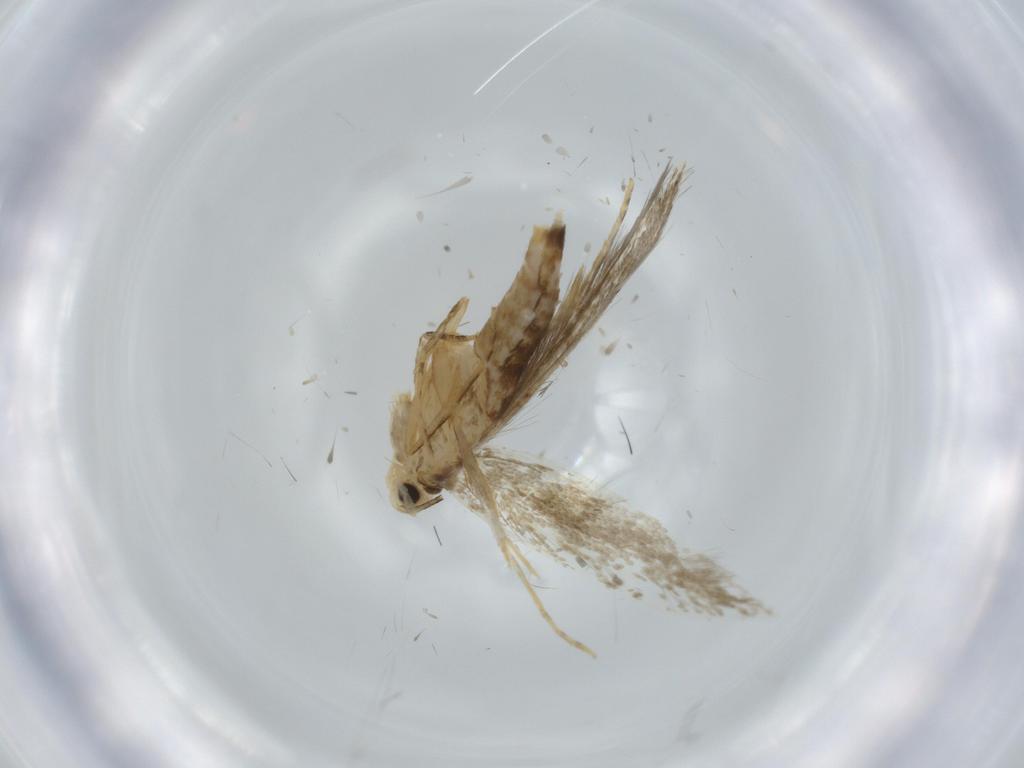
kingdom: Animalia
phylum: Arthropoda
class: Insecta
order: Lepidoptera
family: Tineidae
